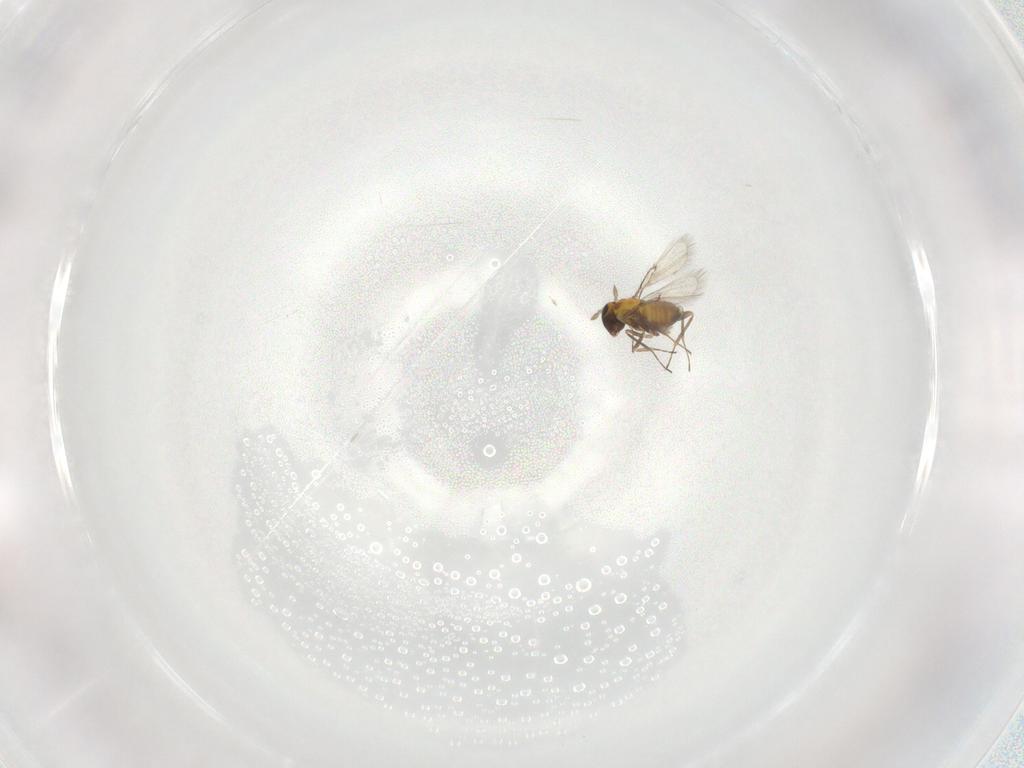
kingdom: Animalia
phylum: Arthropoda
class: Insecta
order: Hymenoptera
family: Trichogrammatidae
